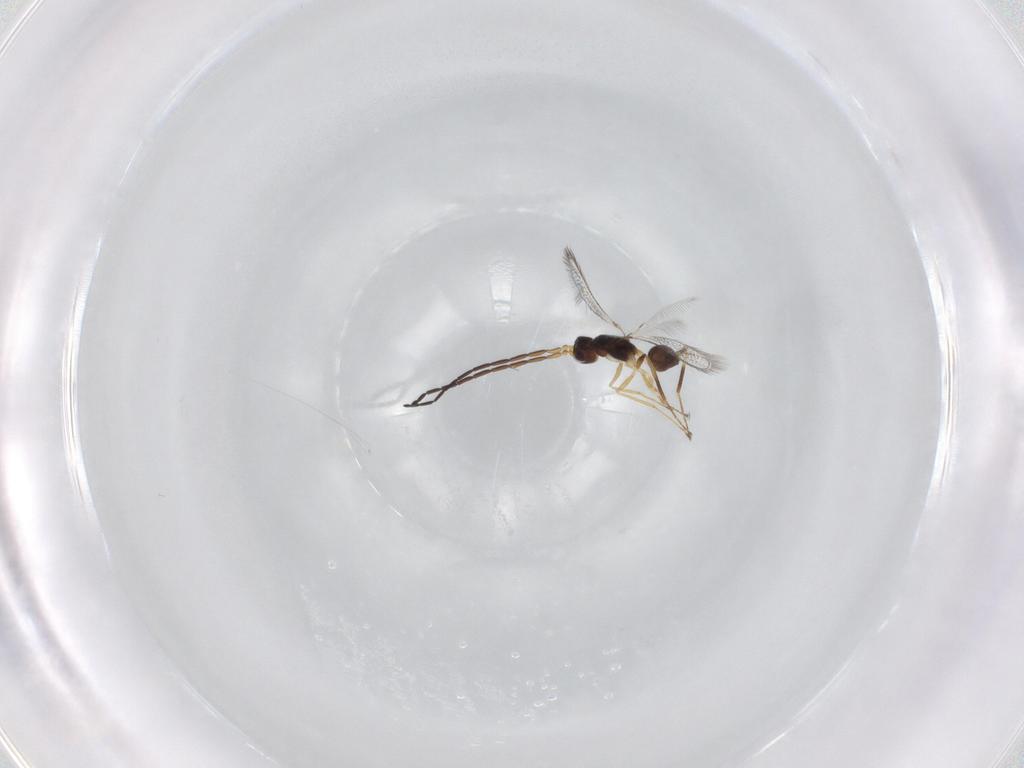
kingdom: Animalia
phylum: Arthropoda
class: Insecta
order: Hymenoptera
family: Mymaridae
